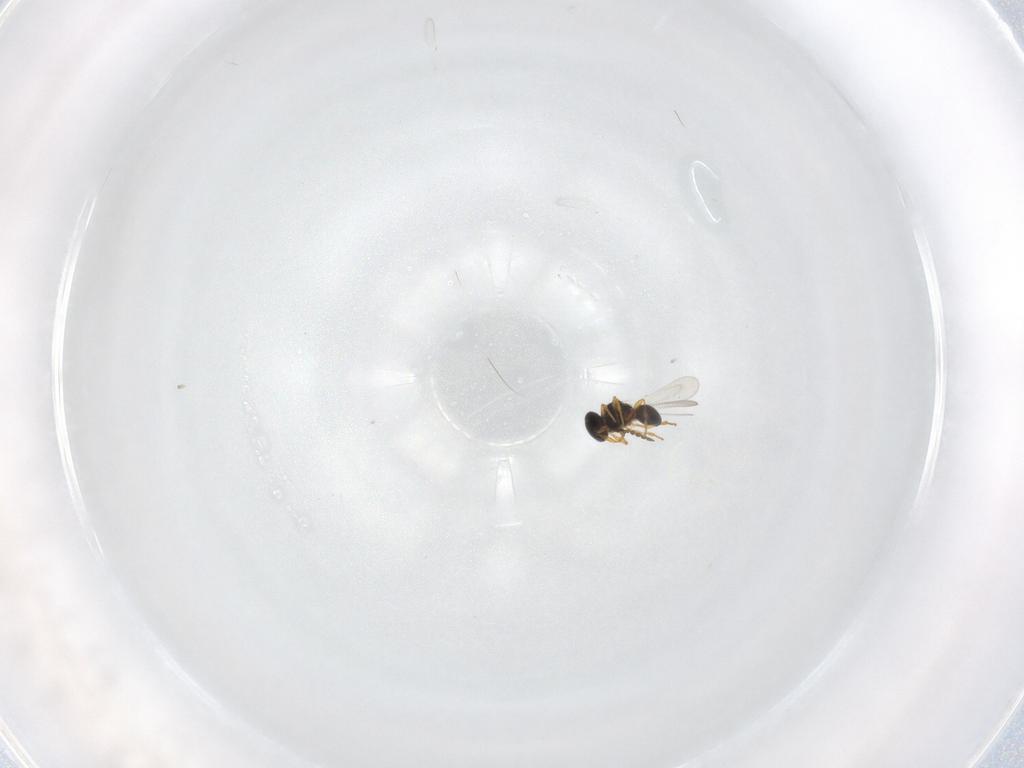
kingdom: Animalia
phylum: Arthropoda
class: Insecta
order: Hymenoptera
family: Platygastridae
